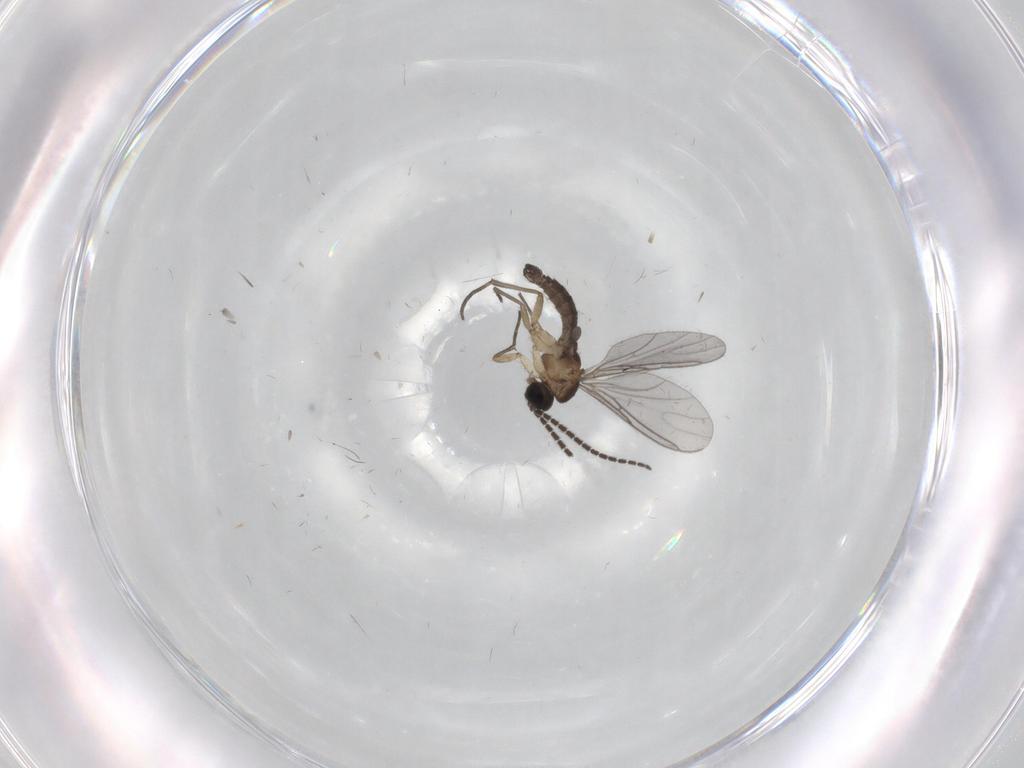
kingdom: Animalia
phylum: Arthropoda
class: Insecta
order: Diptera
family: Sciaridae
